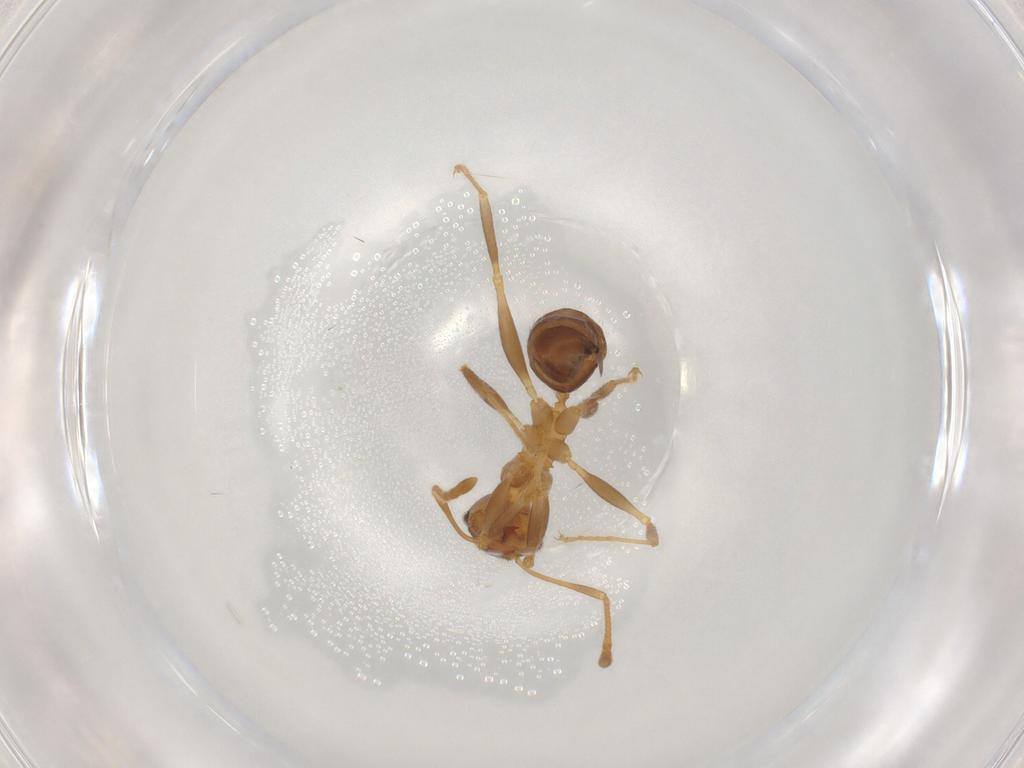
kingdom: Animalia
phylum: Arthropoda
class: Insecta
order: Hymenoptera
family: Formicidae
